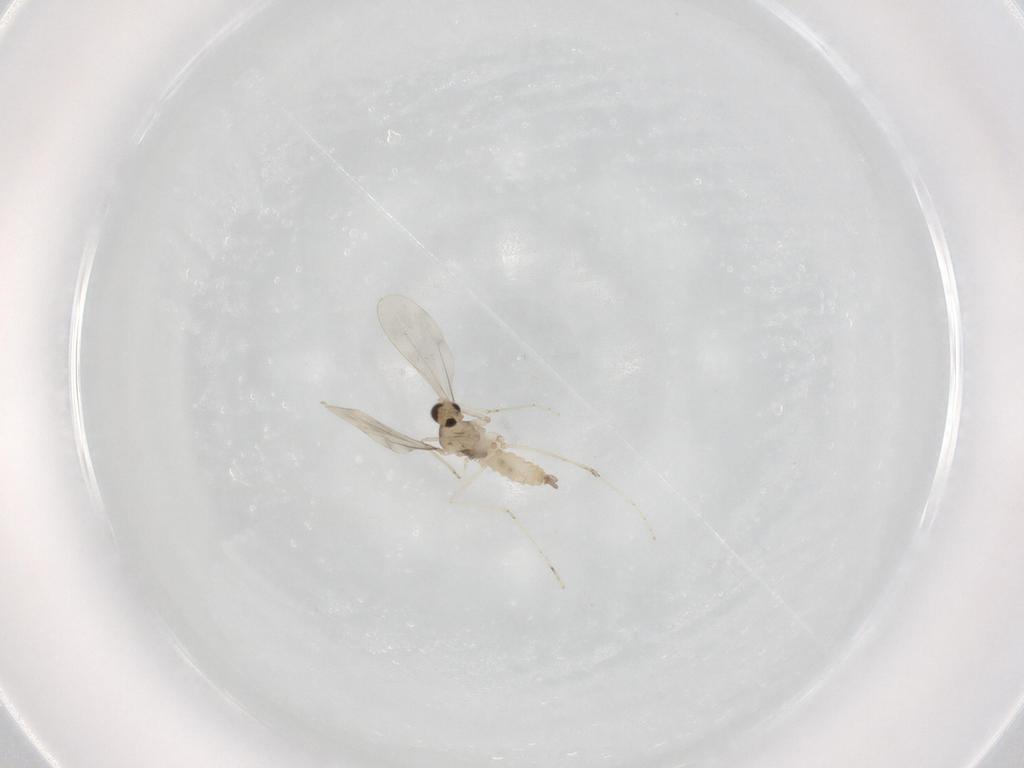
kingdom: Animalia
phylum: Arthropoda
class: Insecta
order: Diptera
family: Cecidomyiidae
